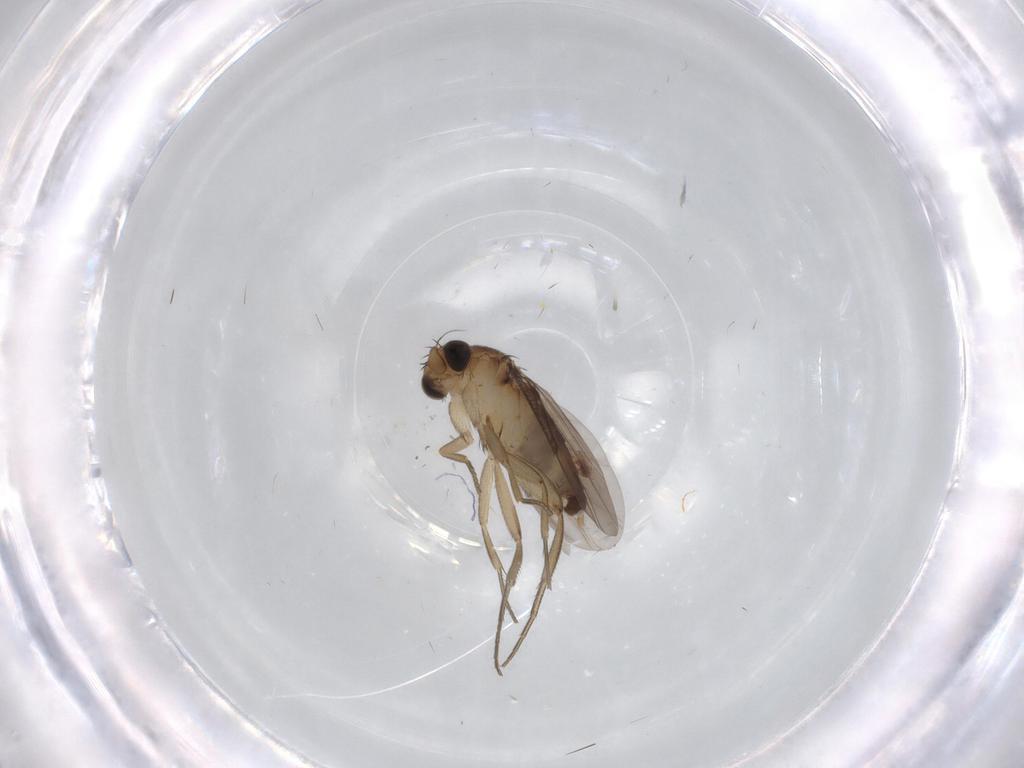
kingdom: Animalia
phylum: Arthropoda
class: Insecta
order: Diptera
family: Phoridae
